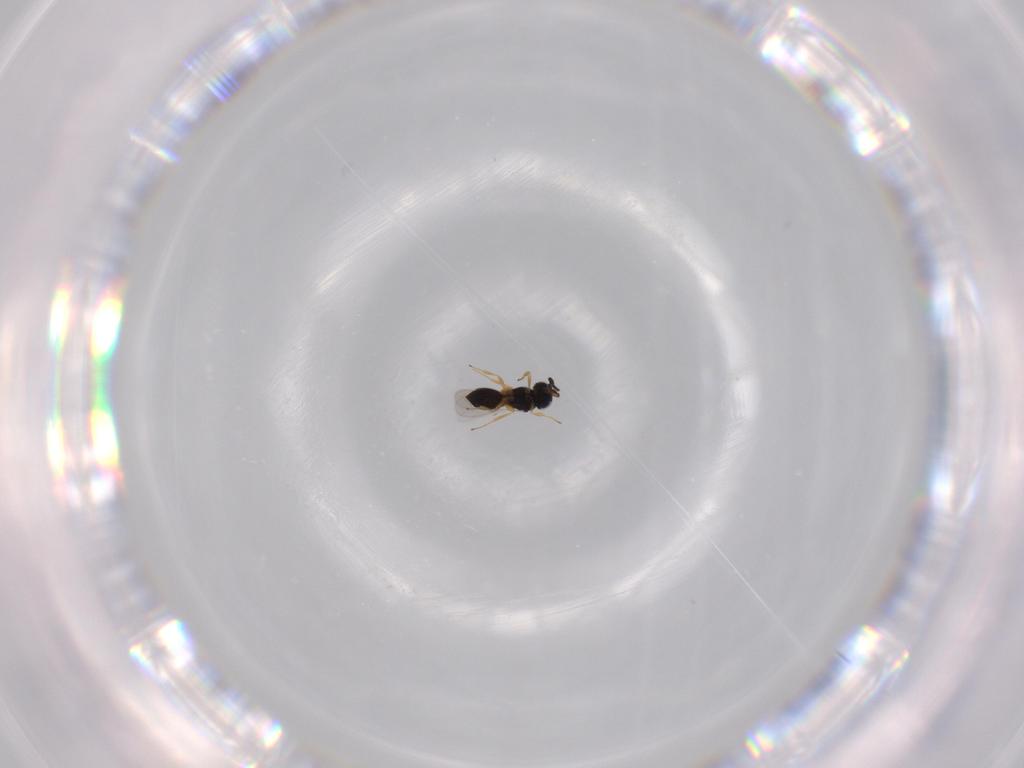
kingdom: Animalia
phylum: Arthropoda
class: Insecta
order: Hymenoptera
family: Scelionidae
